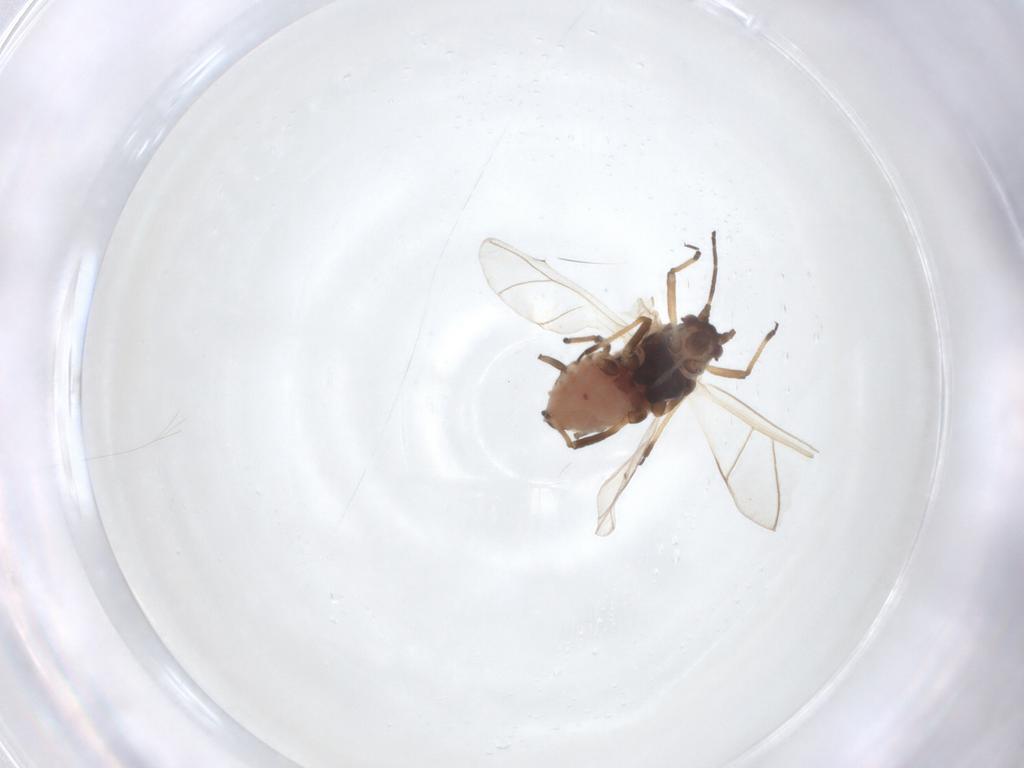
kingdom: Animalia
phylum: Arthropoda
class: Insecta
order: Hemiptera
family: Aphididae
